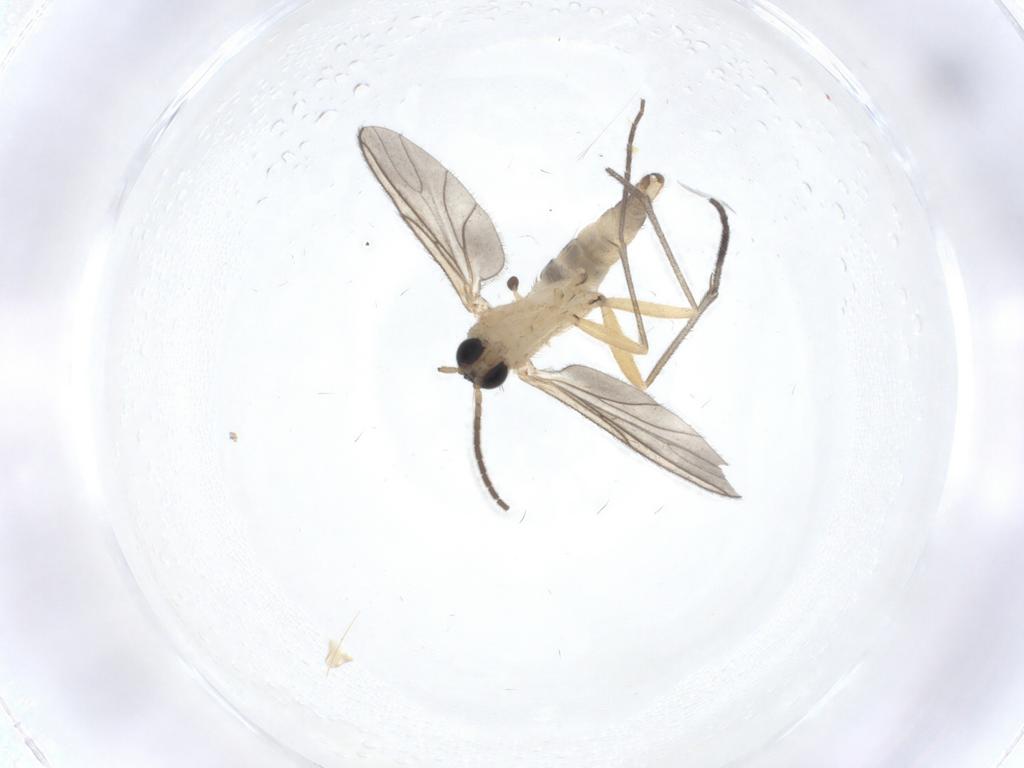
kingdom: Animalia
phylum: Arthropoda
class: Insecta
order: Diptera
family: Sciaridae
